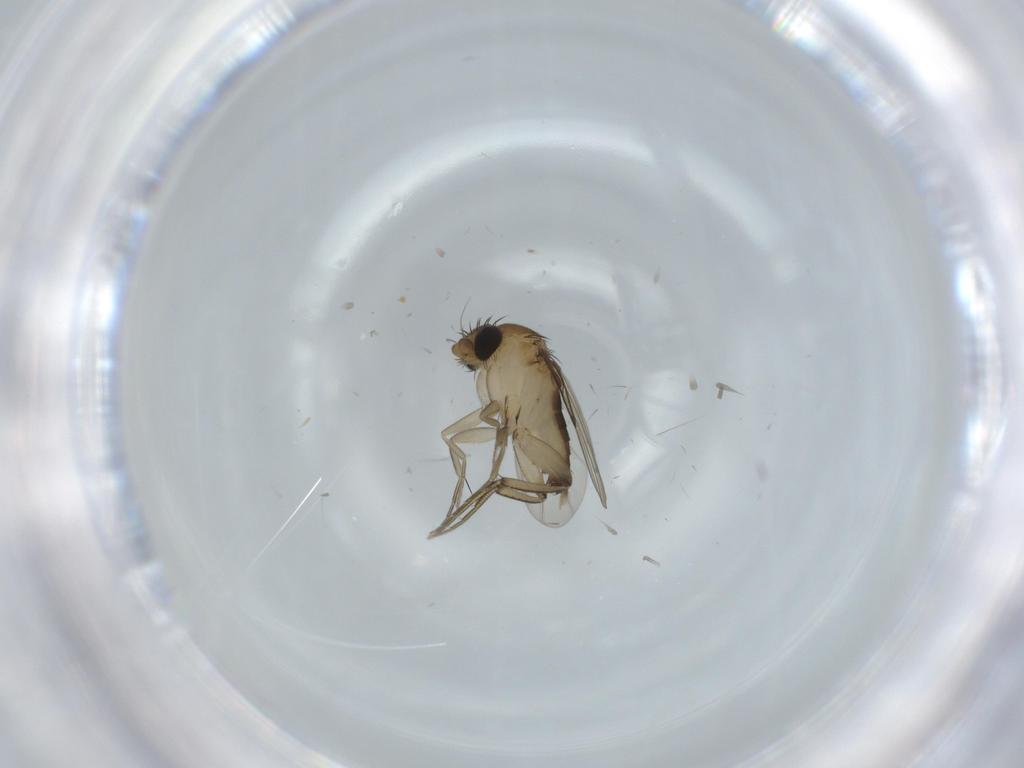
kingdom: Animalia
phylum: Arthropoda
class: Insecta
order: Diptera
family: Phoridae
